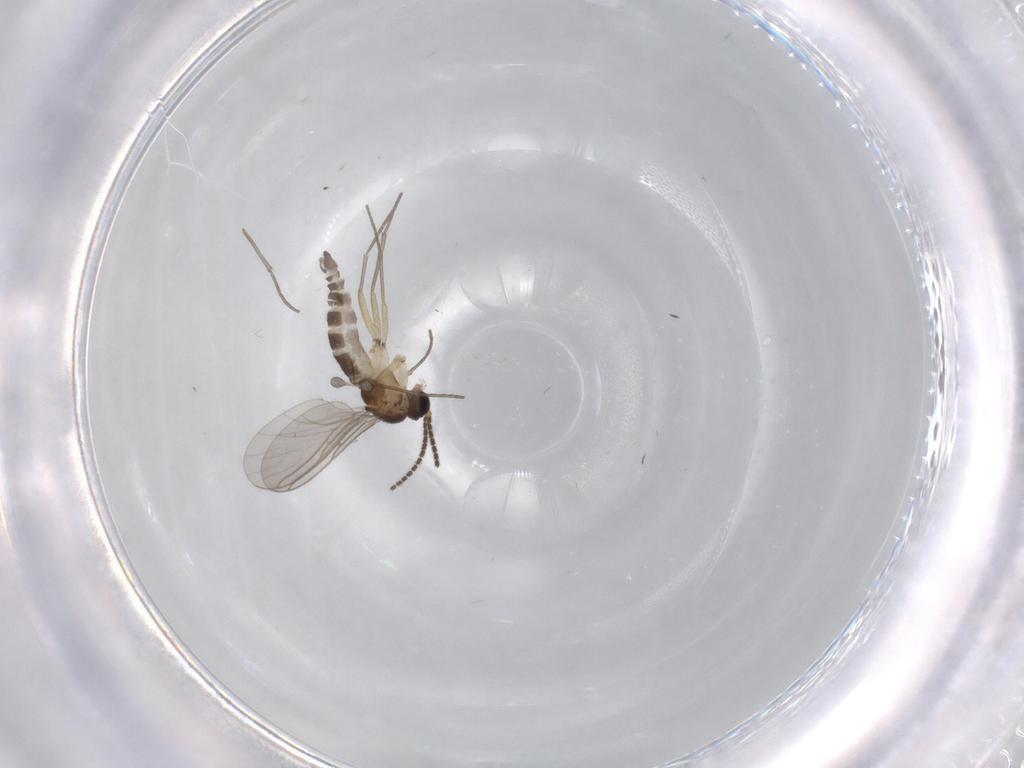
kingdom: Animalia
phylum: Arthropoda
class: Insecta
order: Diptera
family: Sciaridae
